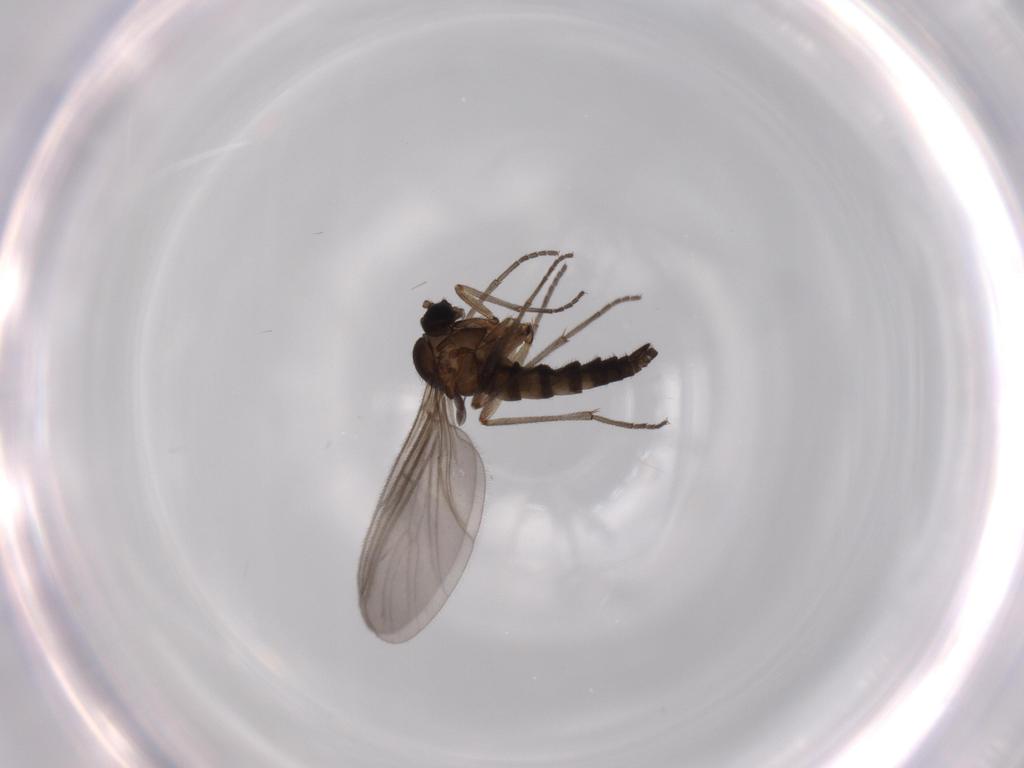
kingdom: Animalia
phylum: Arthropoda
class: Insecta
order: Diptera
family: Sciaridae
